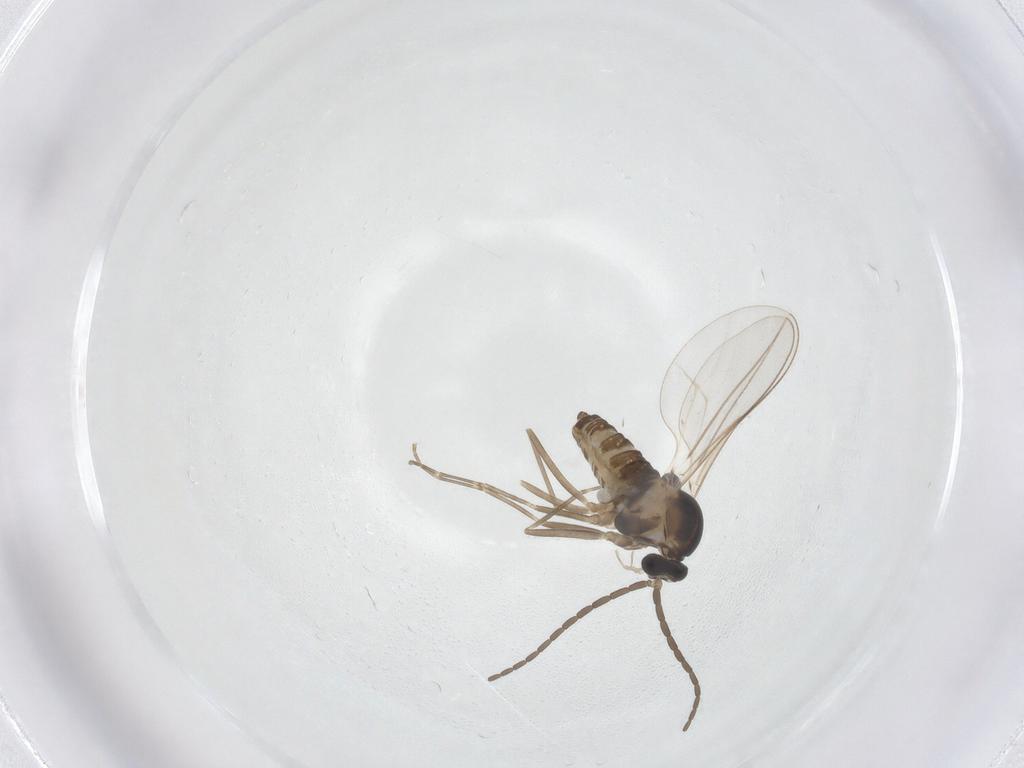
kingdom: Animalia
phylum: Arthropoda
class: Insecta
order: Diptera
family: Cecidomyiidae
